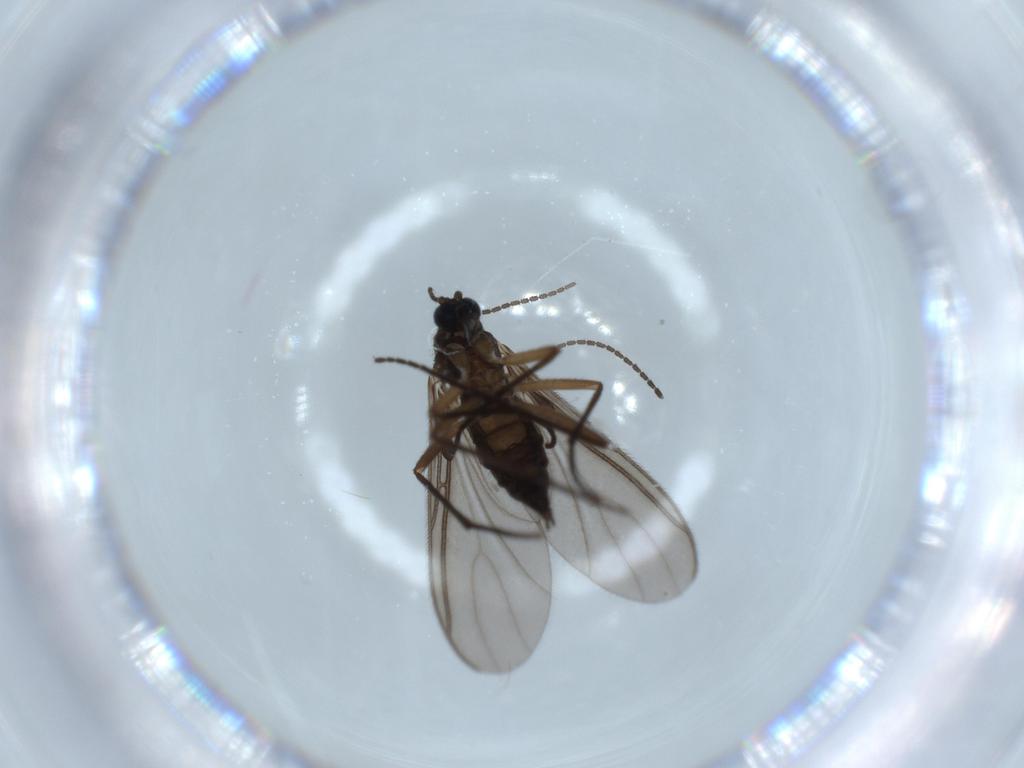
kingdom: Animalia
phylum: Arthropoda
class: Insecta
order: Diptera
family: Sciaridae
